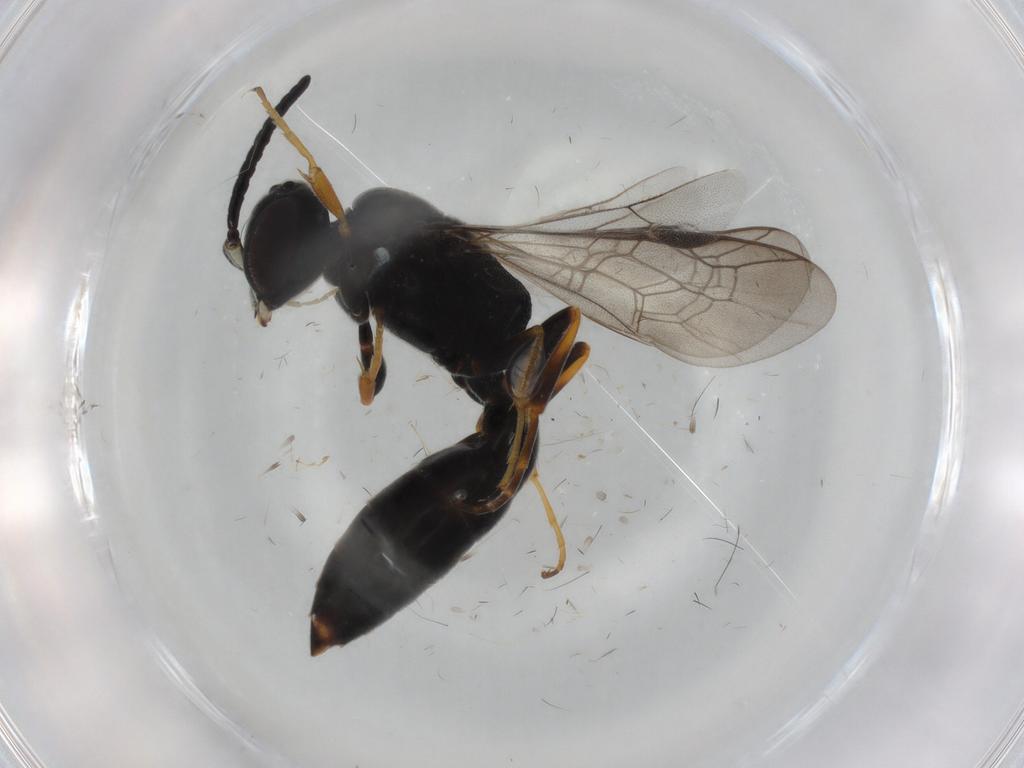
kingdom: Animalia
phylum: Arthropoda
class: Insecta
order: Hymenoptera
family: Crabronidae
